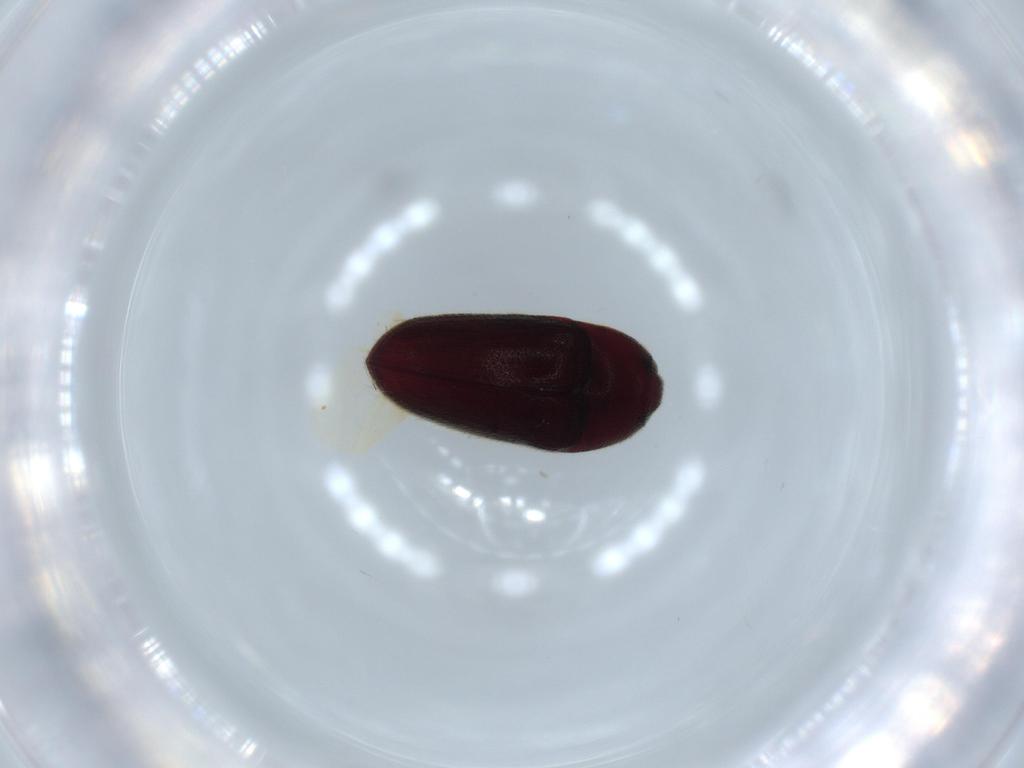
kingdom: Animalia
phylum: Arthropoda
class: Insecta
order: Coleoptera
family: Throscidae
